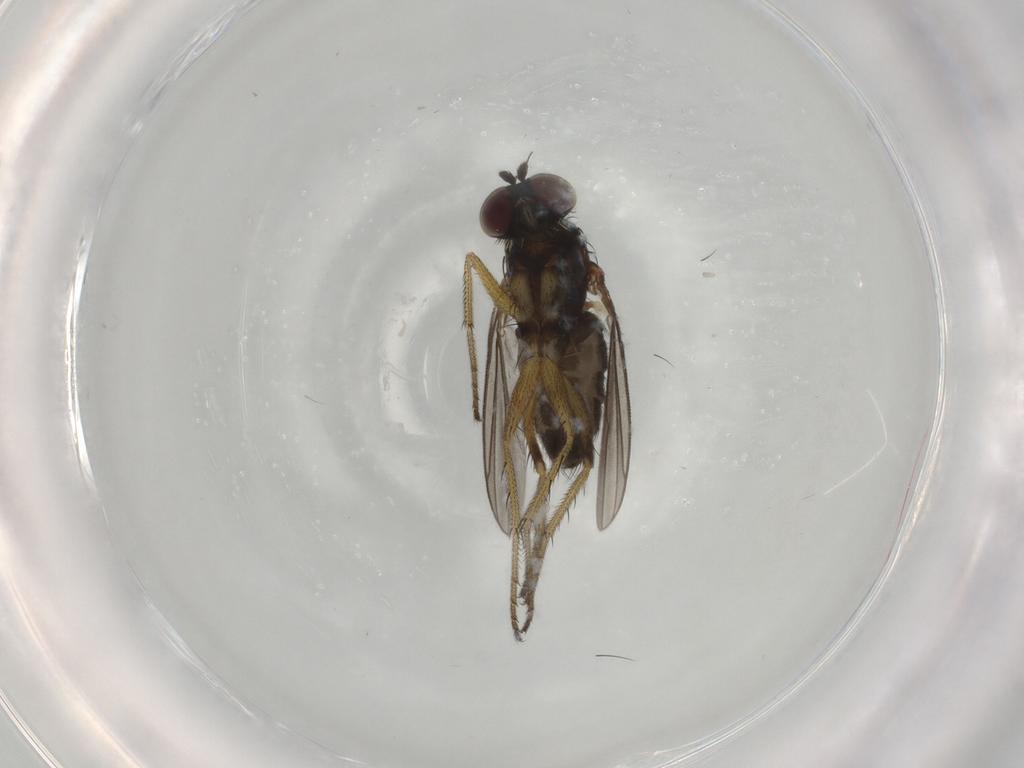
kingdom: Animalia
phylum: Arthropoda
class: Insecta
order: Diptera
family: Dolichopodidae
